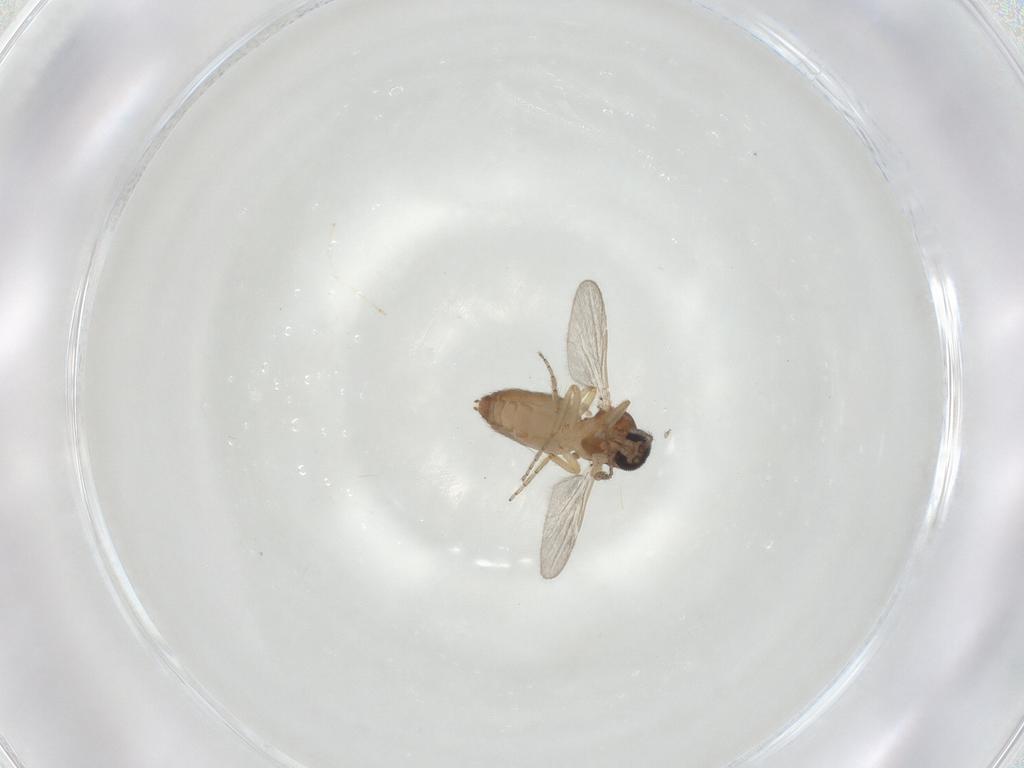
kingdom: Animalia
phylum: Arthropoda
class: Insecta
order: Diptera
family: Ceratopogonidae
